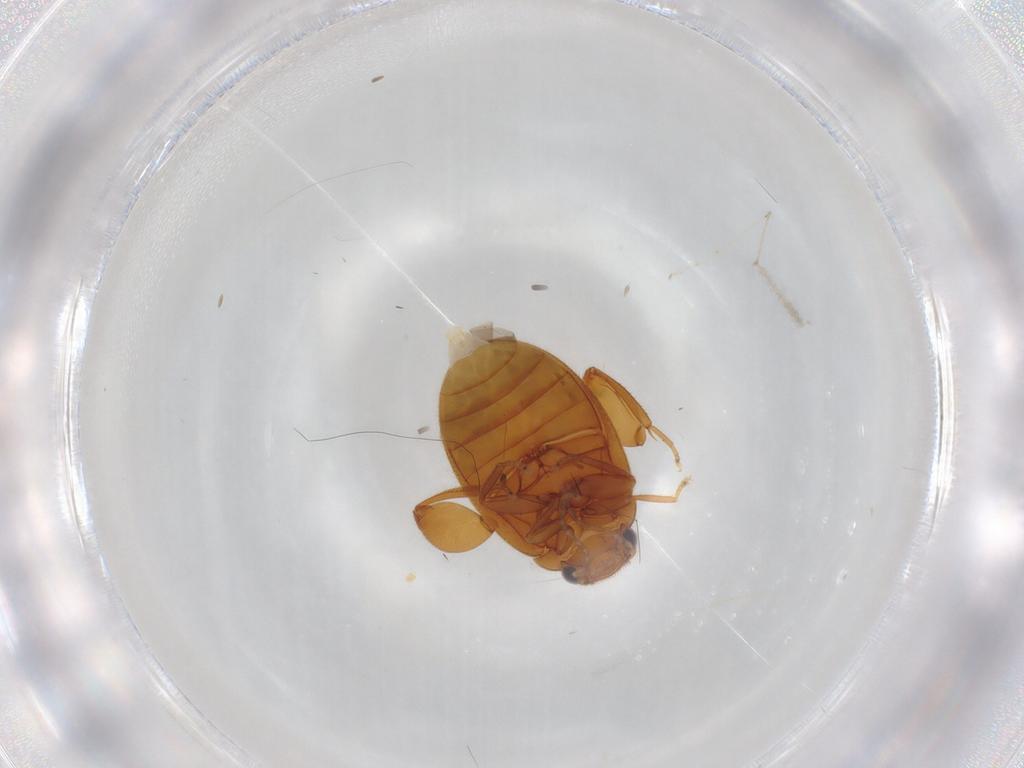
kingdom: Animalia
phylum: Arthropoda
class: Insecta
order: Coleoptera
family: Scirtidae
